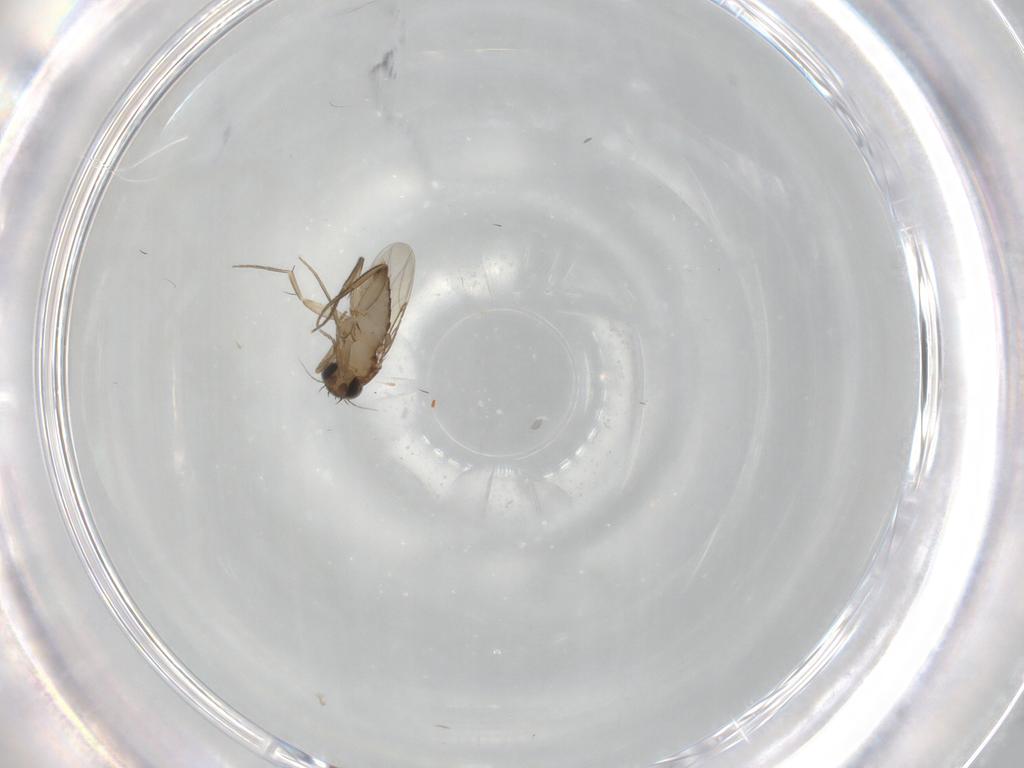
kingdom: Animalia
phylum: Arthropoda
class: Insecta
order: Diptera
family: Phoridae
